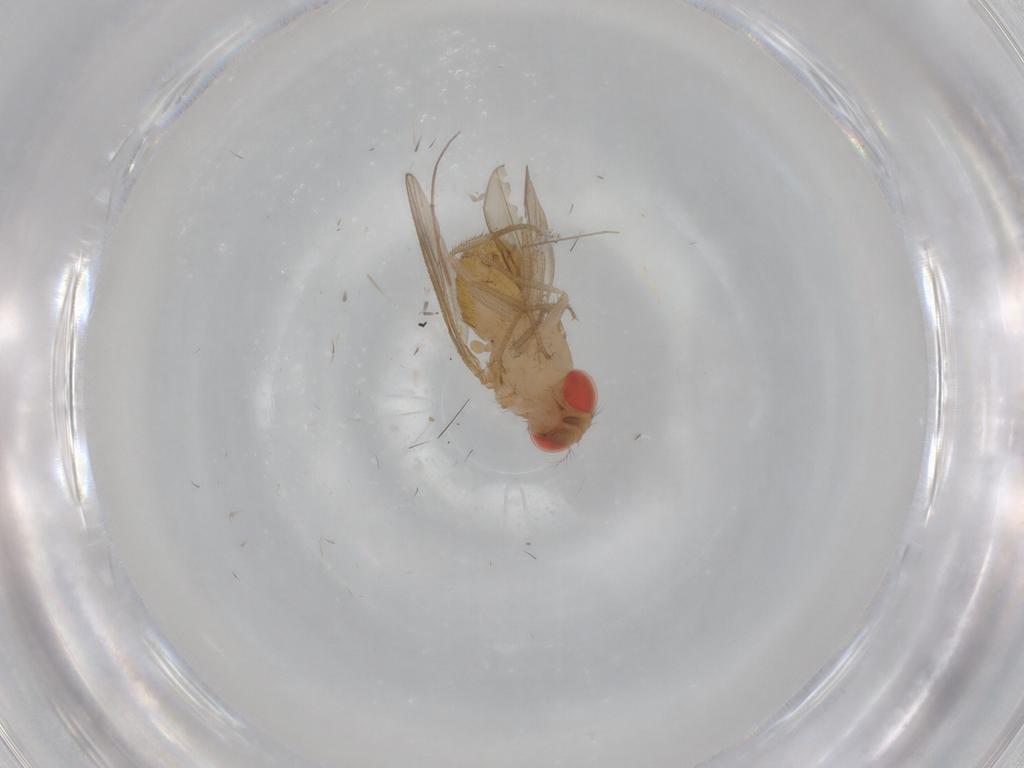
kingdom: Animalia
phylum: Arthropoda
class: Insecta
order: Diptera
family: Drosophilidae
